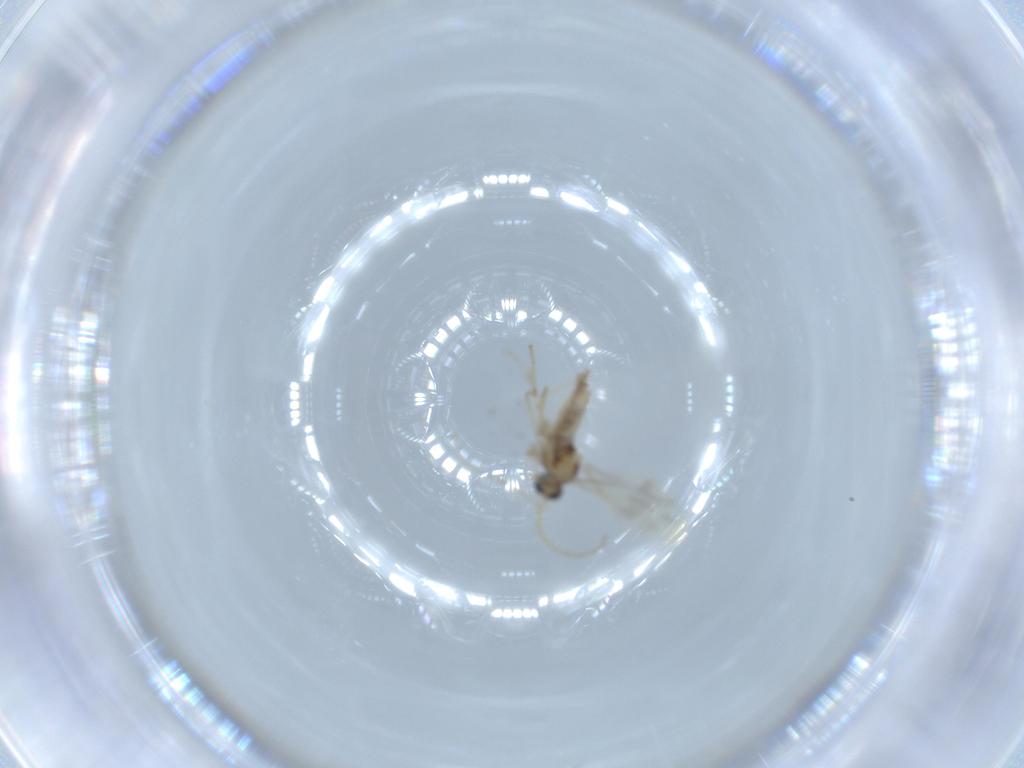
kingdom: Animalia
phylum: Arthropoda
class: Insecta
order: Diptera
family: Cecidomyiidae
